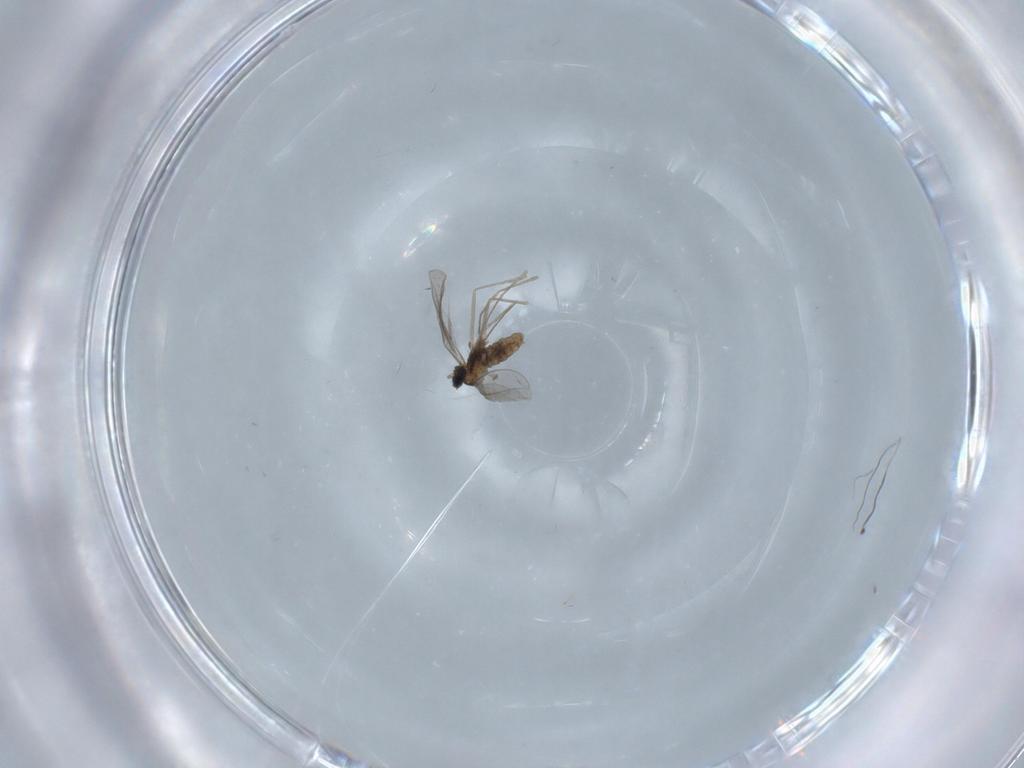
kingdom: Animalia
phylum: Arthropoda
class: Insecta
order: Diptera
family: Cecidomyiidae
